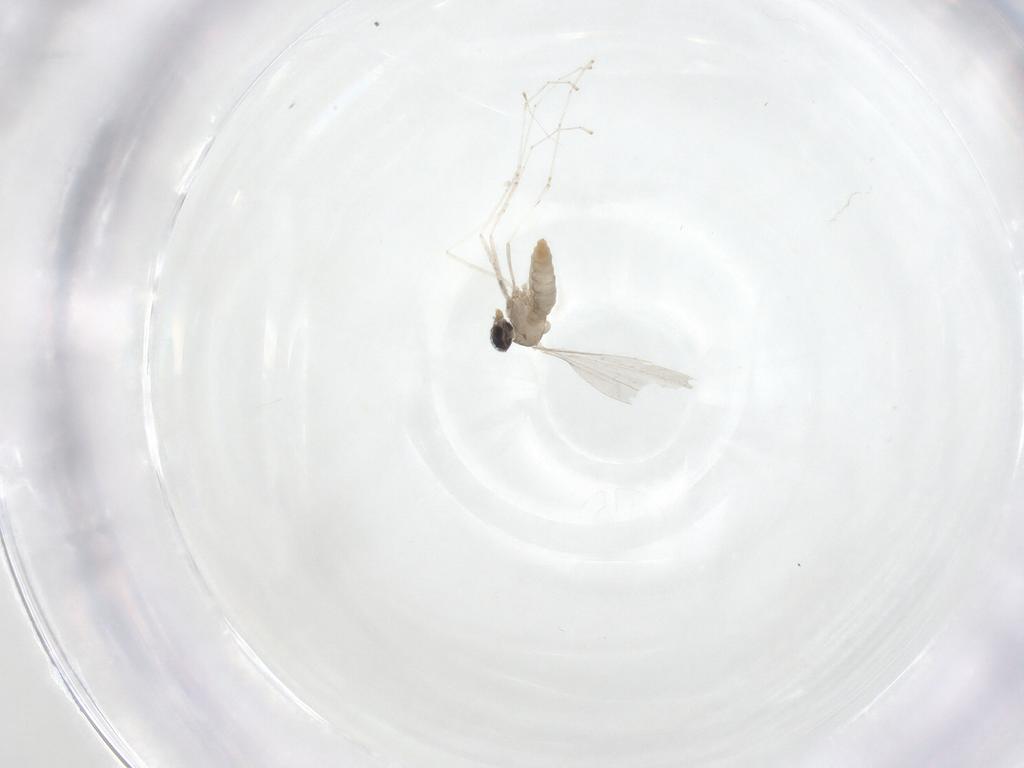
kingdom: Animalia
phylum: Arthropoda
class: Insecta
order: Diptera
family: Cecidomyiidae
